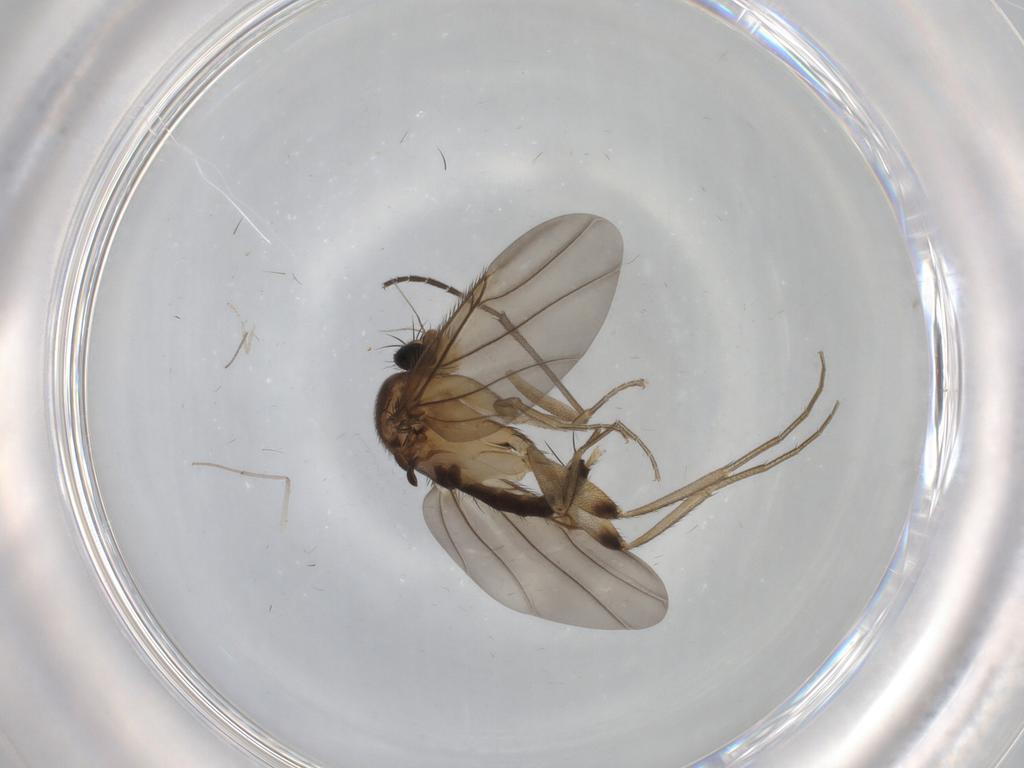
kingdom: Animalia
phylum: Arthropoda
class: Insecta
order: Diptera
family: Phoridae
